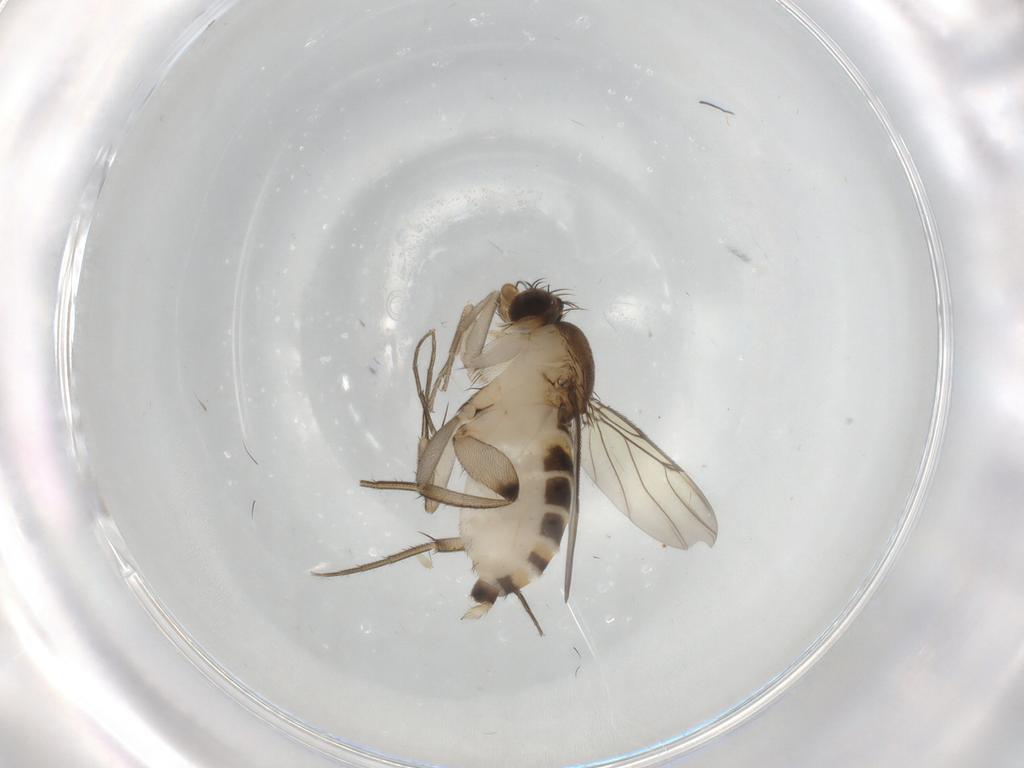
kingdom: Animalia
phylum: Arthropoda
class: Insecta
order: Diptera
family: Phoridae
